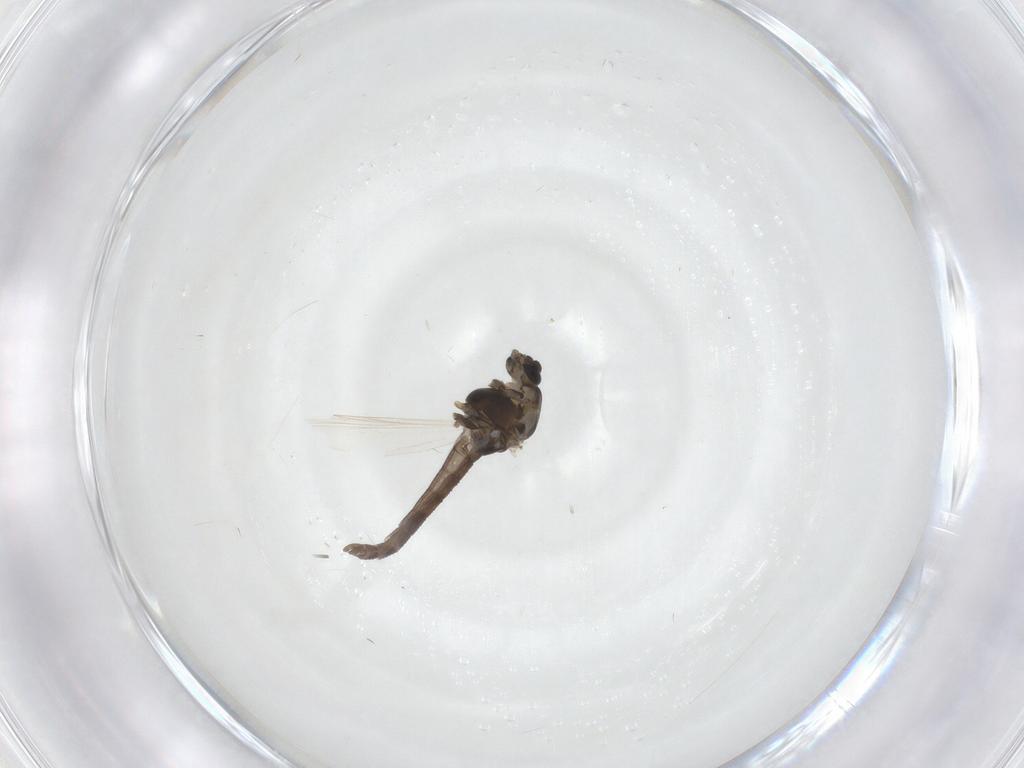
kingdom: Animalia
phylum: Arthropoda
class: Insecta
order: Diptera
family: Chironomidae
